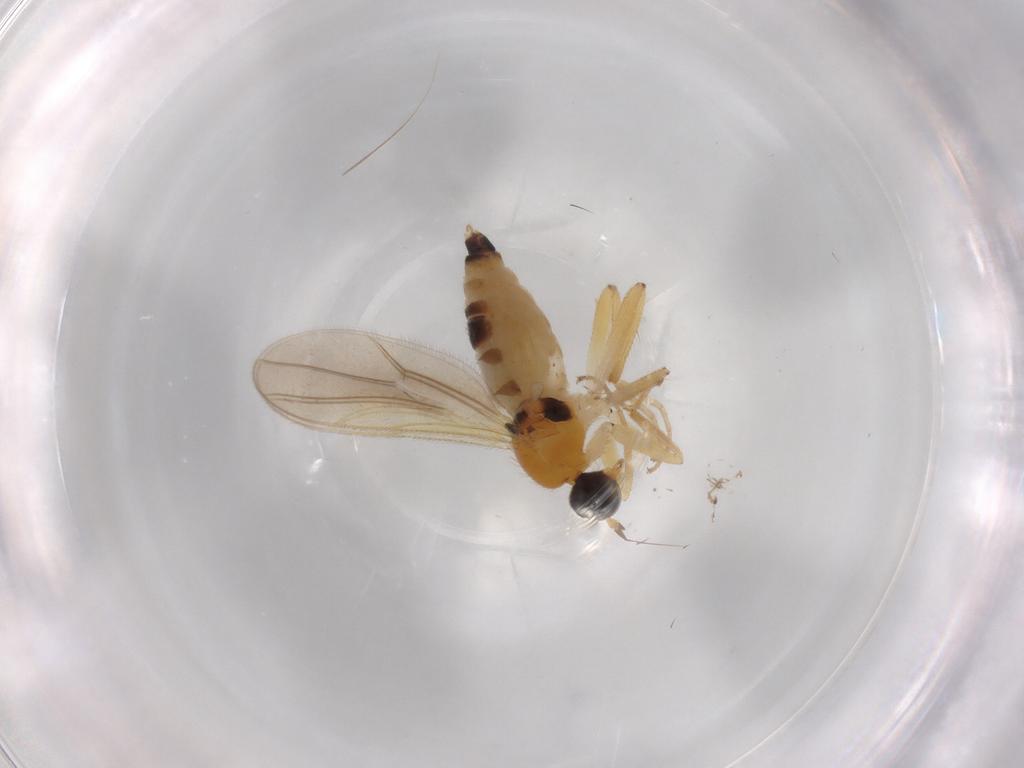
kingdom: Animalia
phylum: Arthropoda
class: Insecta
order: Diptera
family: Hybotidae
